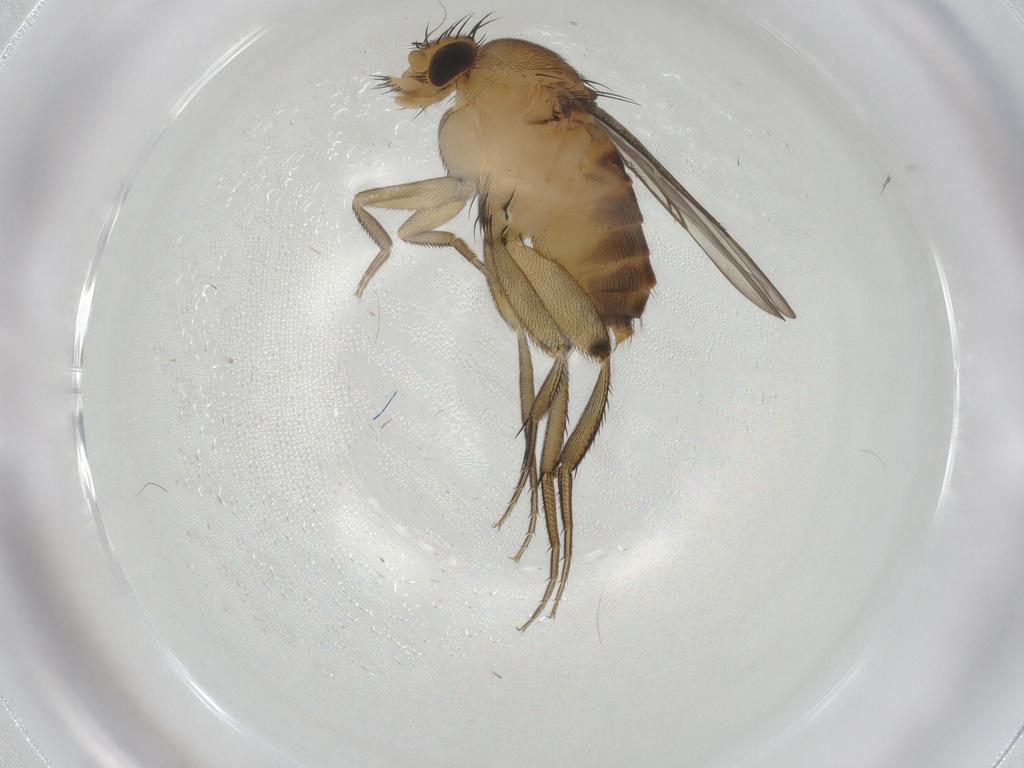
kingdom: Animalia
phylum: Arthropoda
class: Insecta
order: Diptera
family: Phoridae
